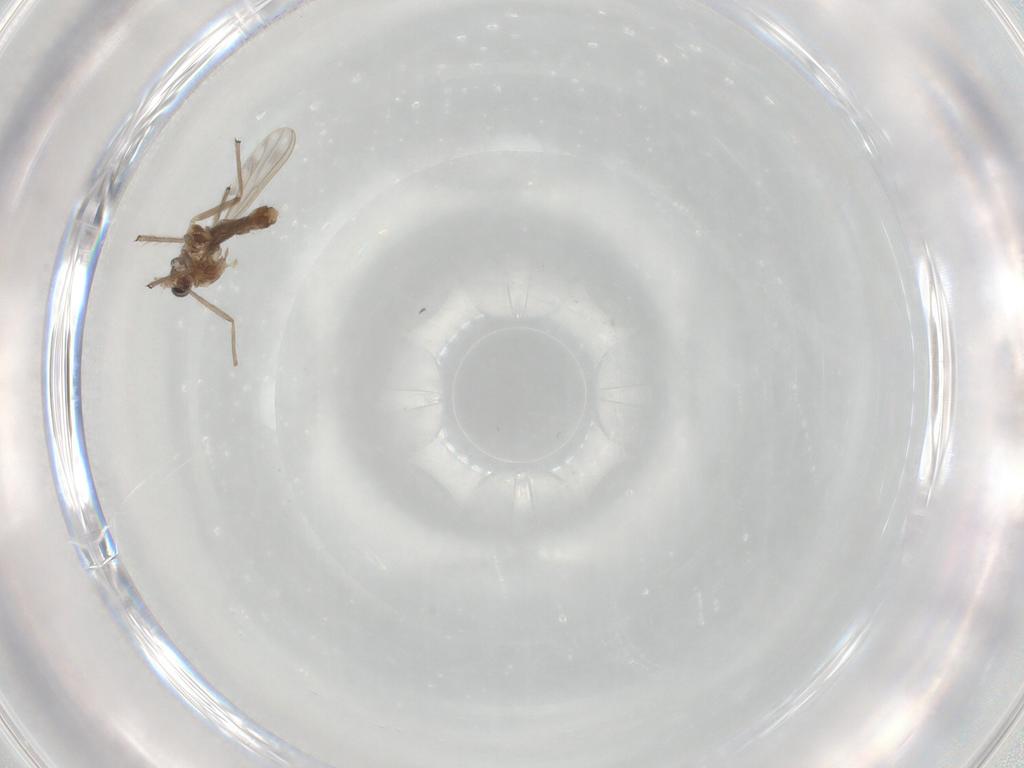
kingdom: Animalia
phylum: Arthropoda
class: Insecta
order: Diptera
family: Chironomidae
